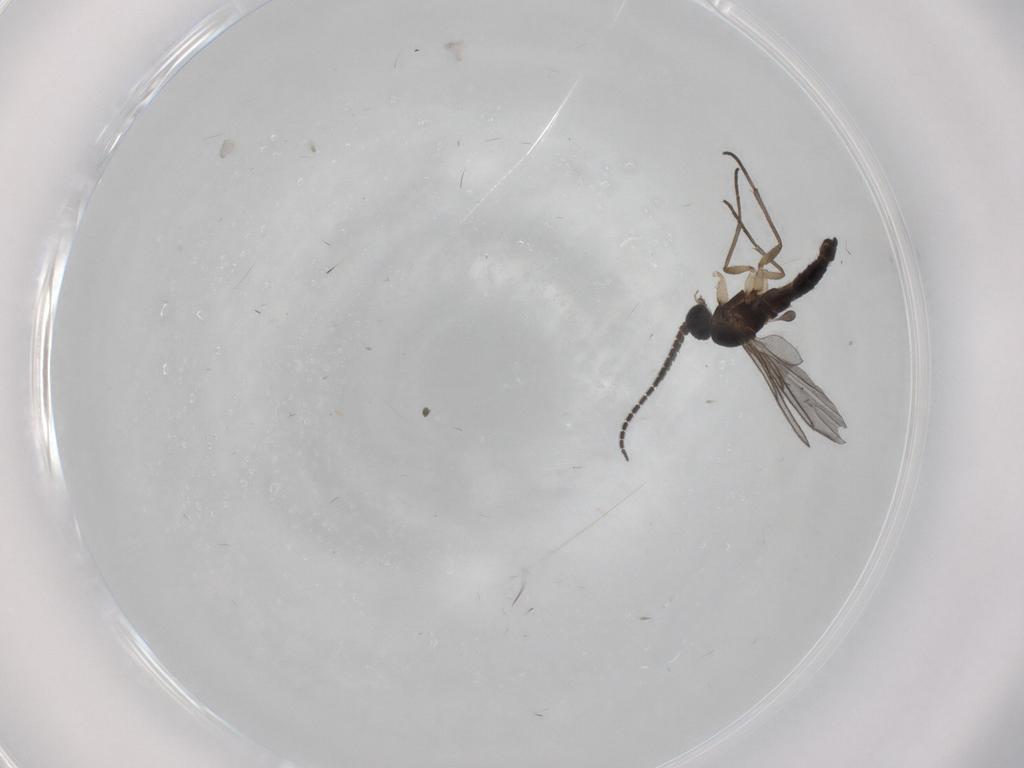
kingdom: Animalia
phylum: Arthropoda
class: Insecta
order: Diptera
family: Sciaridae
